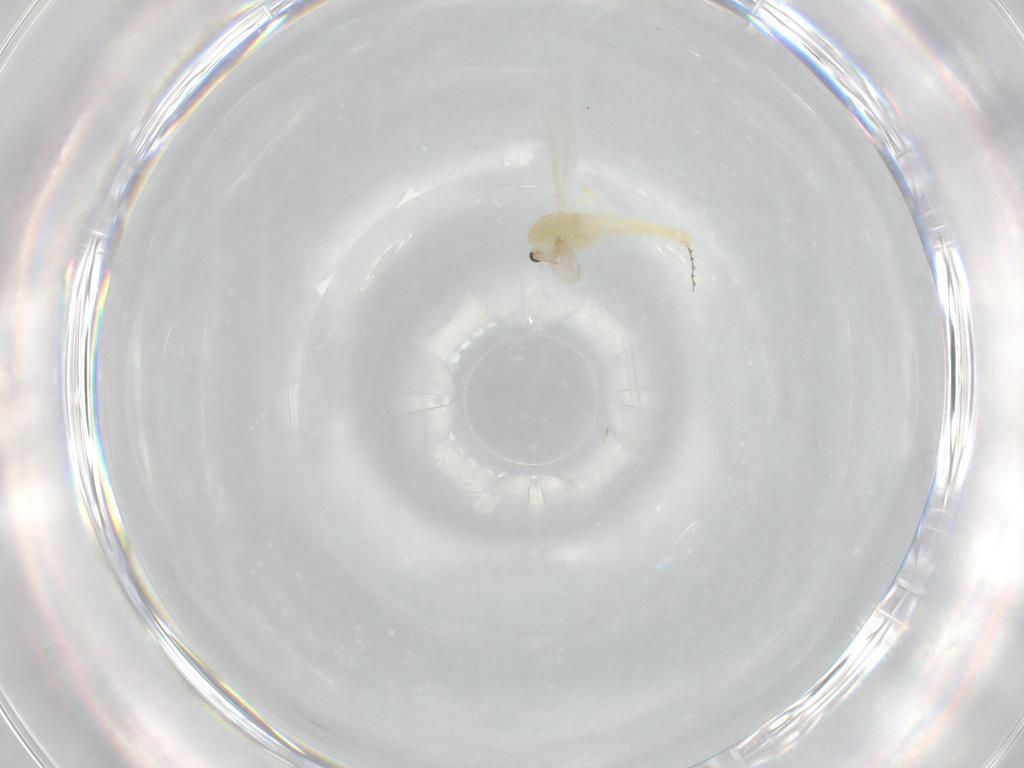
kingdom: Animalia
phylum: Arthropoda
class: Insecta
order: Diptera
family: Chironomidae
